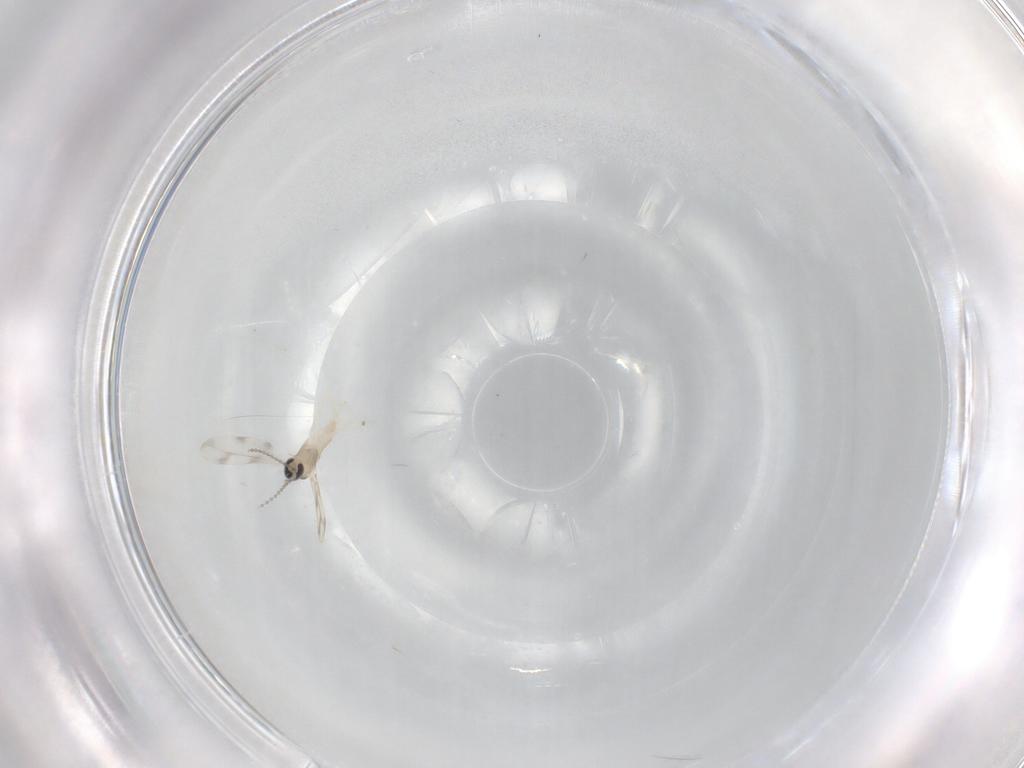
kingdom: Animalia
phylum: Arthropoda
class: Insecta
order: Diptera
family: Cecidomyiidae
